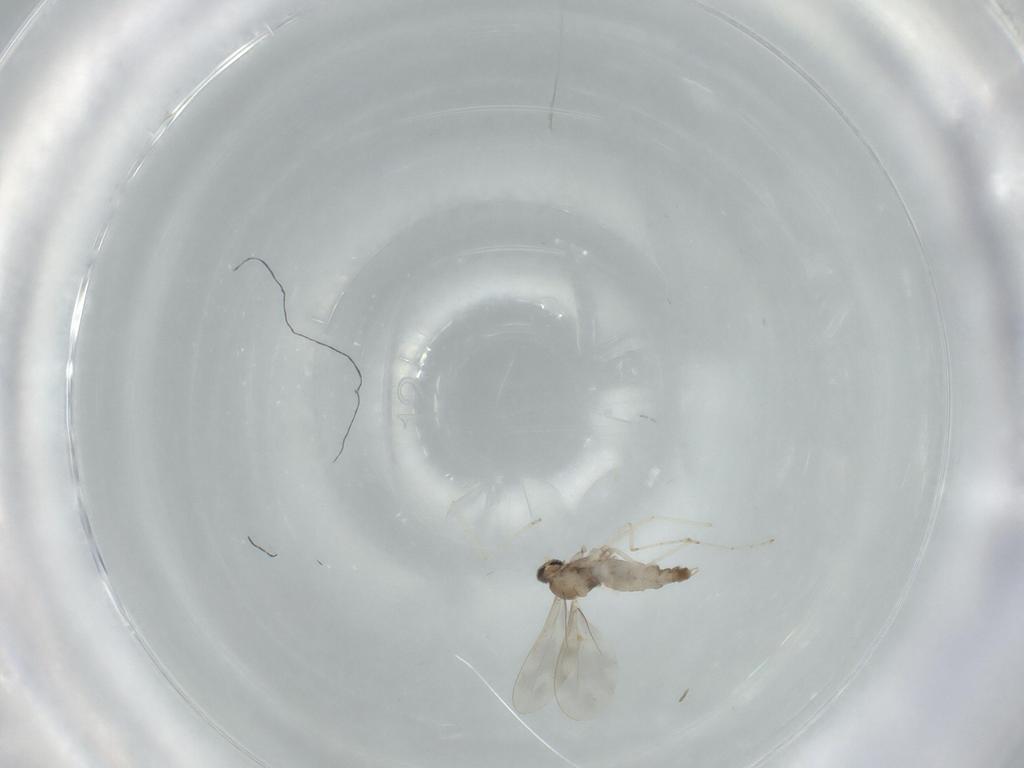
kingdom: Animalia
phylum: Arthropoda
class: Insecta
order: Diptera
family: Cecidomyiidae
